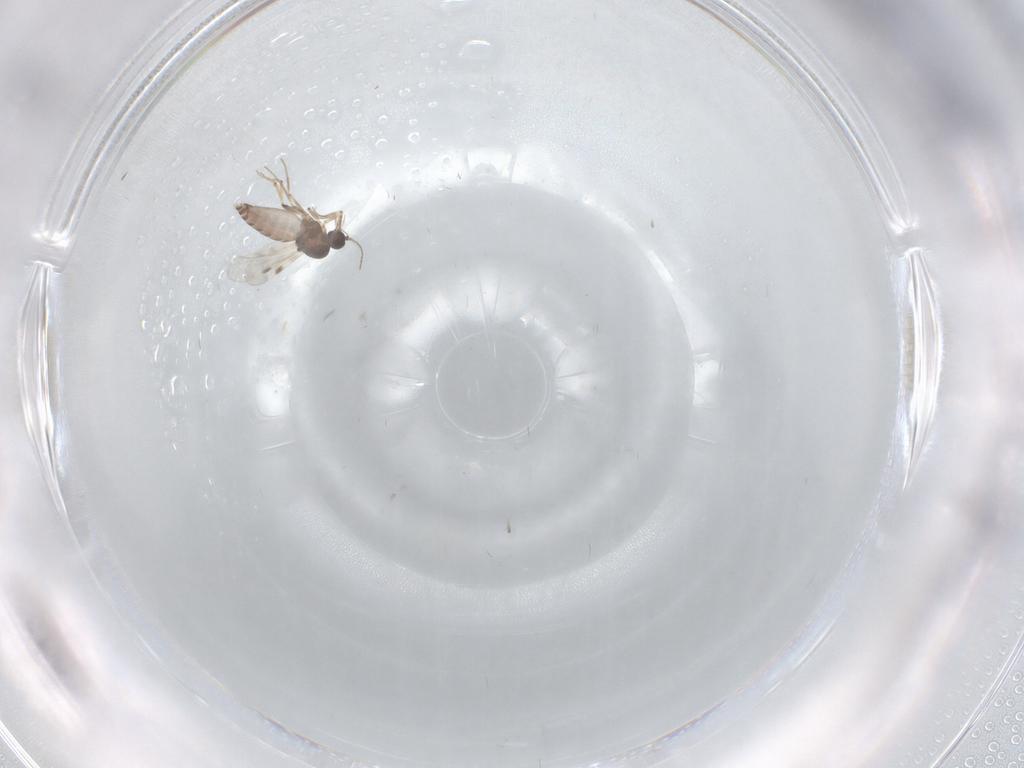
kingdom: Animalia
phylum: Arthropoda
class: Insecta
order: Diptera
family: Limoniidae
